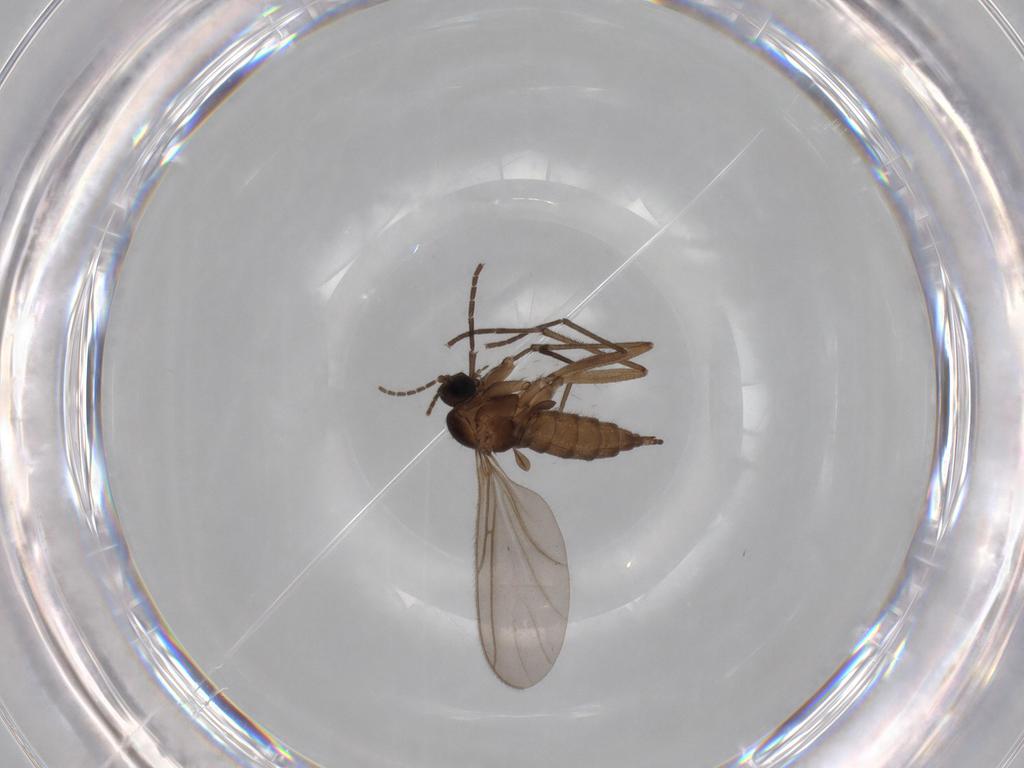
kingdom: Animalia
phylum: Arthropoda
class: Insecta
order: Diptera
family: Sciaridae
